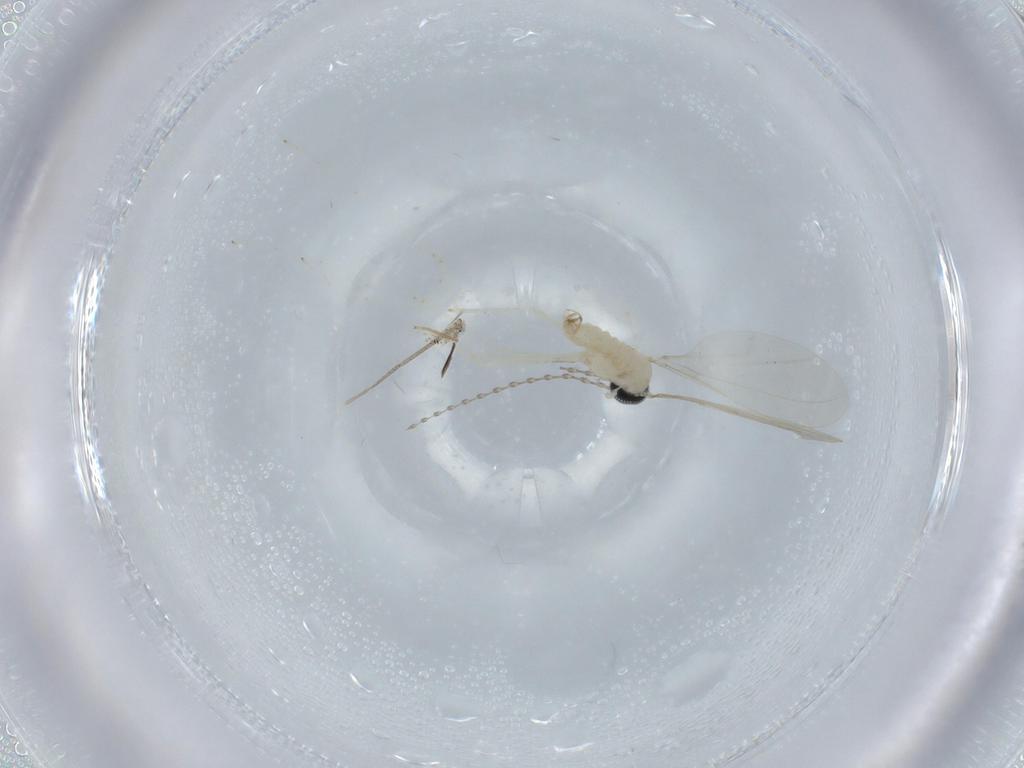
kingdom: Animalia
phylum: Arthropoda
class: Insecta
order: Diptera
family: Cecidomyiidae
